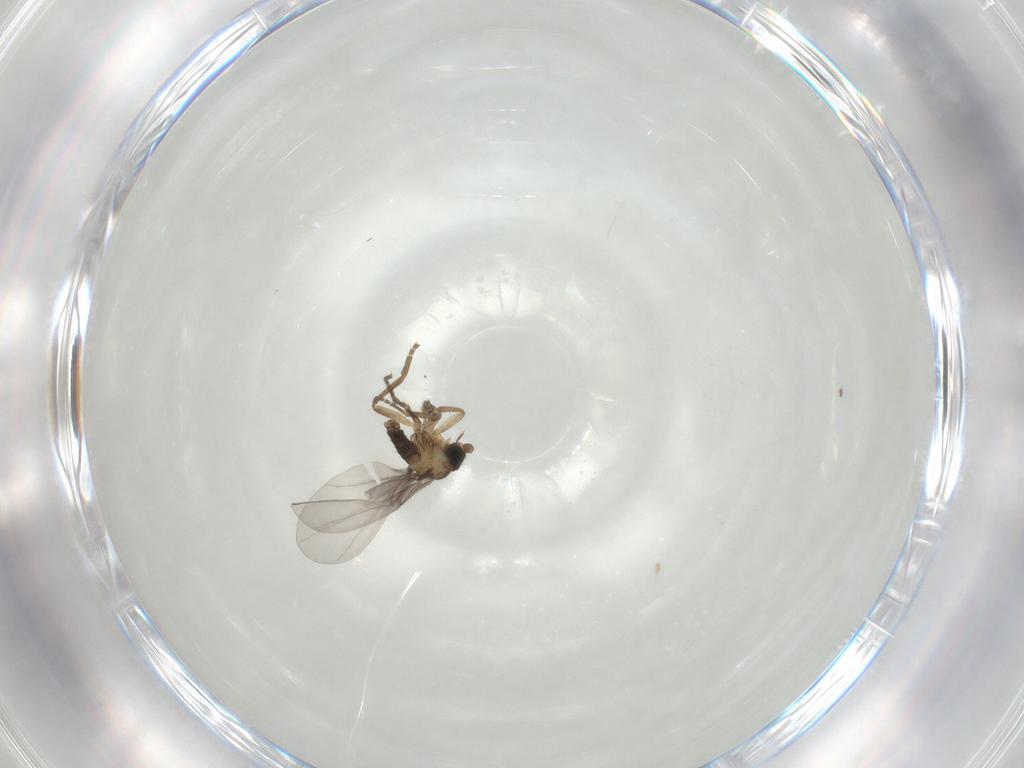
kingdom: Animalia
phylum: Arthropoda
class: Insecta
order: Diptera
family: Phoridae
